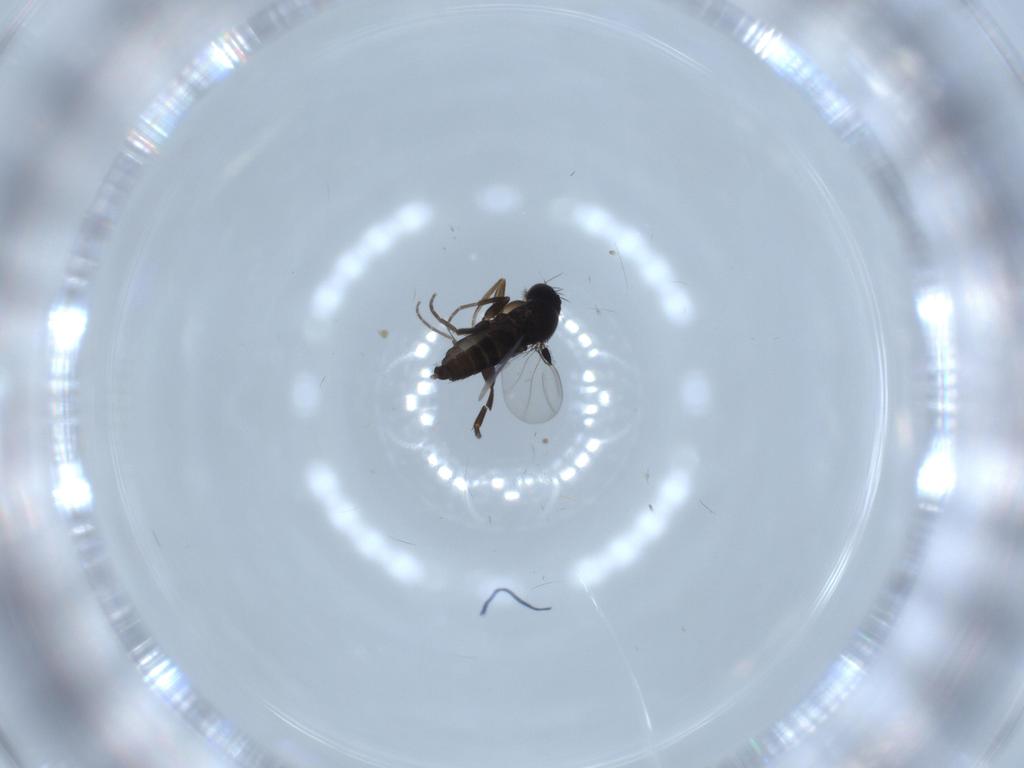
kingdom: Animalia
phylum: Arthropoda
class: Insecta
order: Diptera
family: Phoridae
